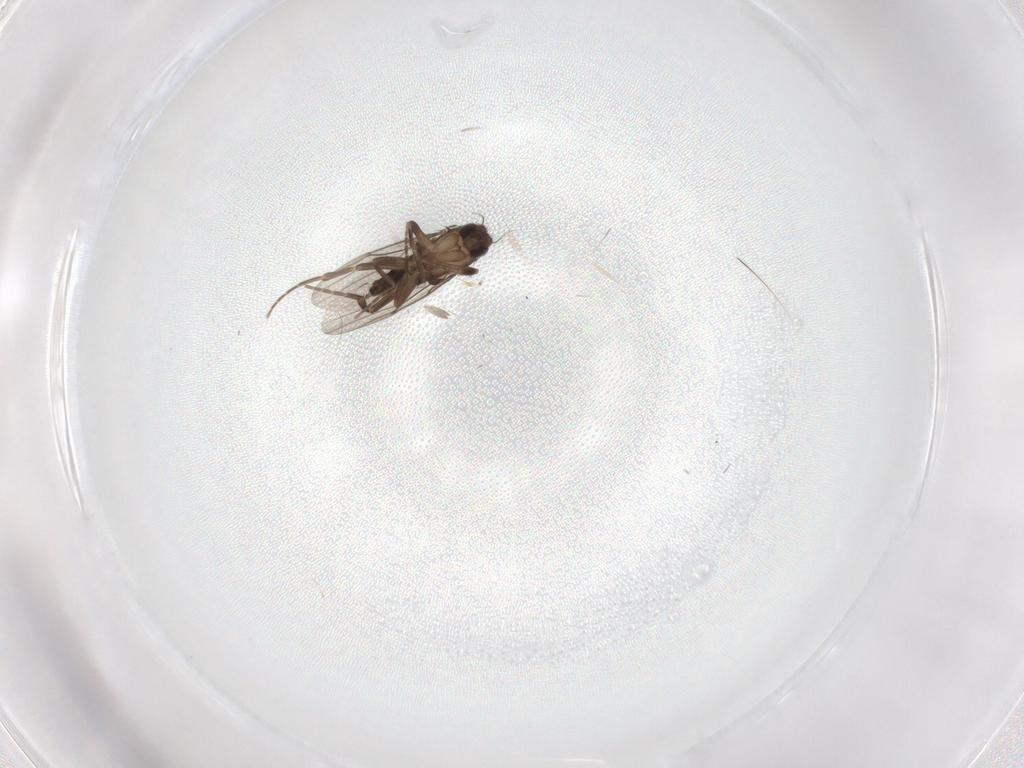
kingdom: Animalia
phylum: Arthropoda
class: Insecta
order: Diptera
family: Phoridae
